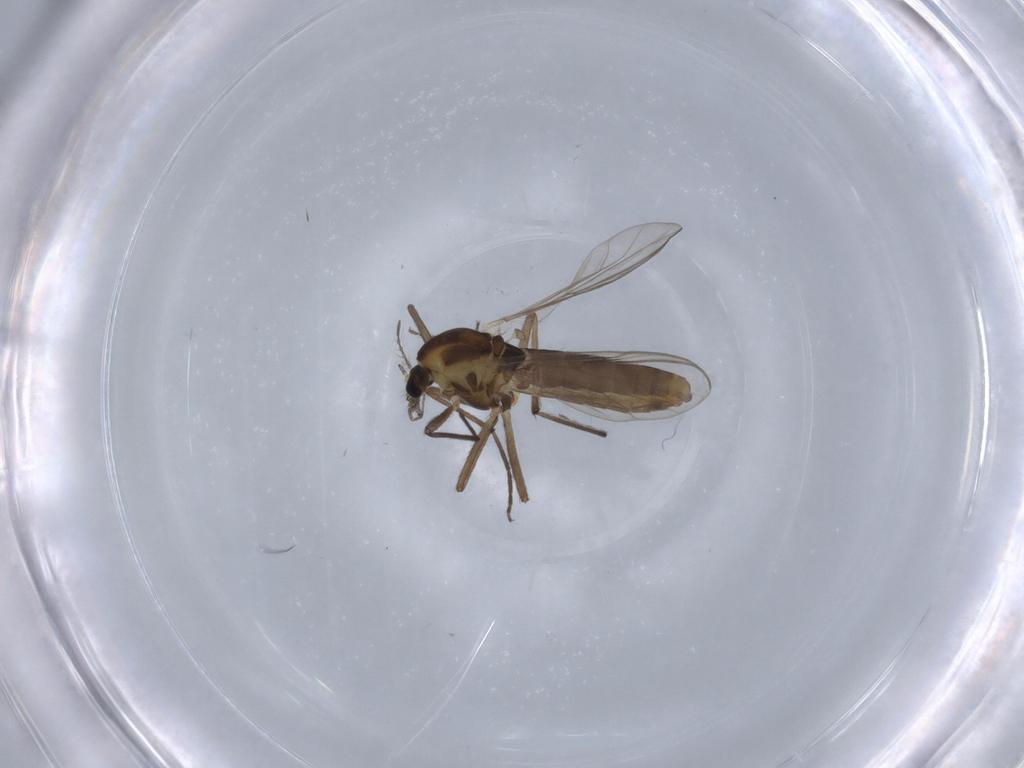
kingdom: Animalia
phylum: Arthropoda
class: Insecta
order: Diptera
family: Chironomidae
